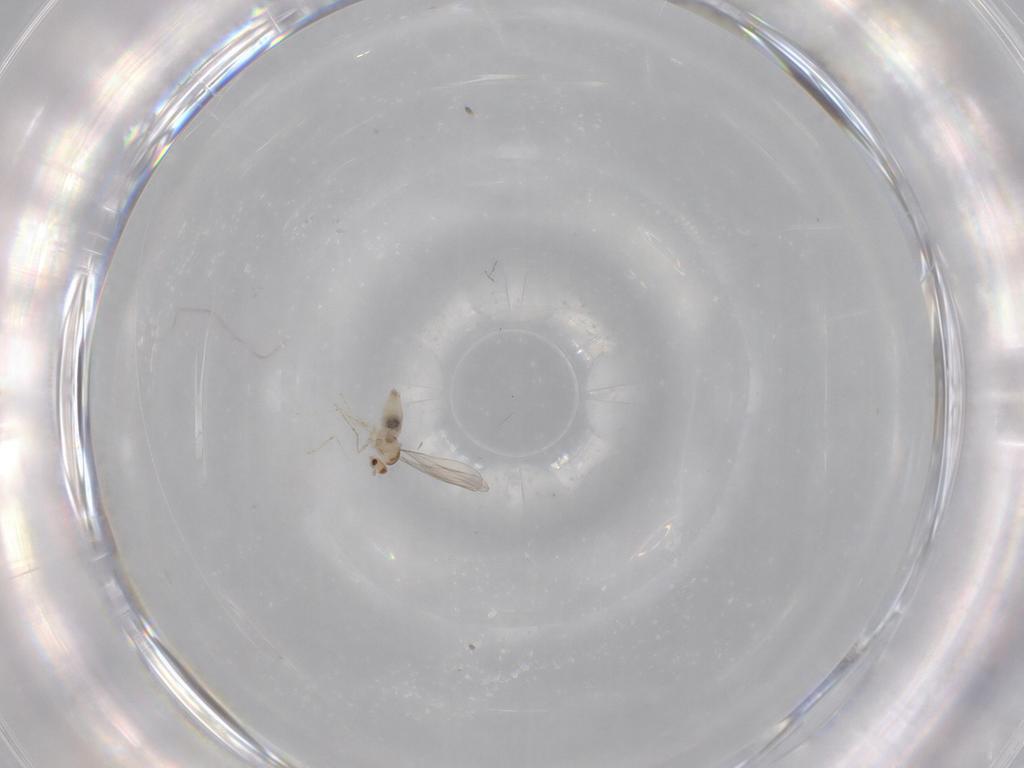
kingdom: Animalia
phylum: Arthropoda
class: Insecta
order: Diptera
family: Cecidomyiidae
